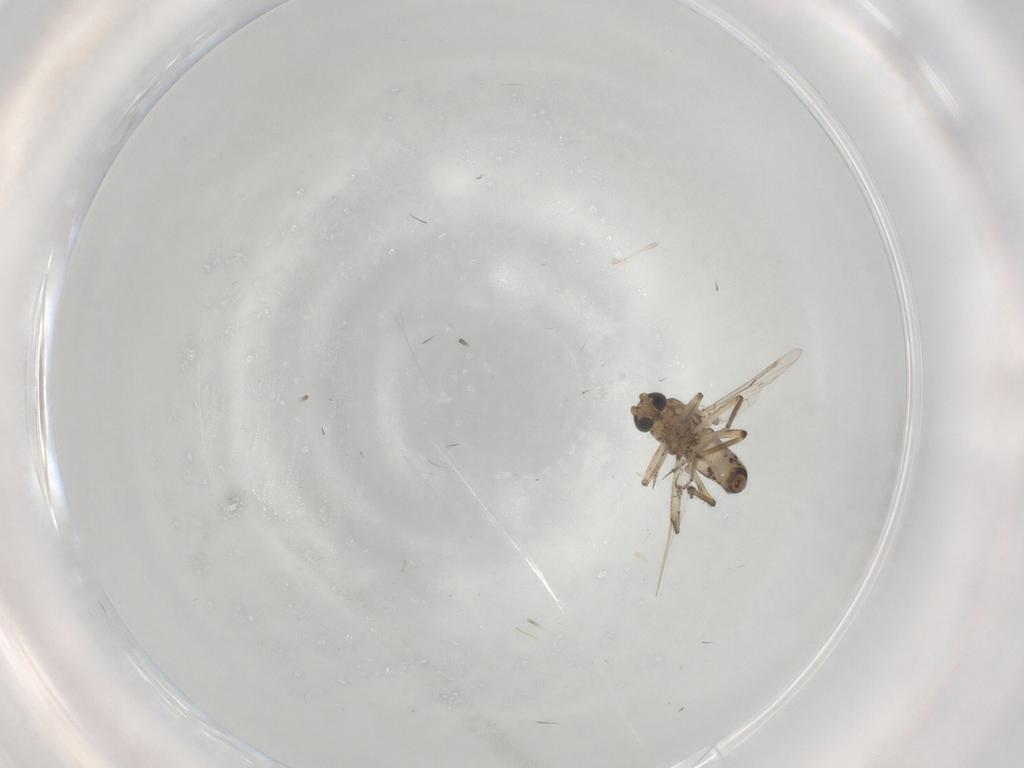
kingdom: Animalia
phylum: Arthropoda
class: Insecta
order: Diptera
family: Ceratopogonidae
